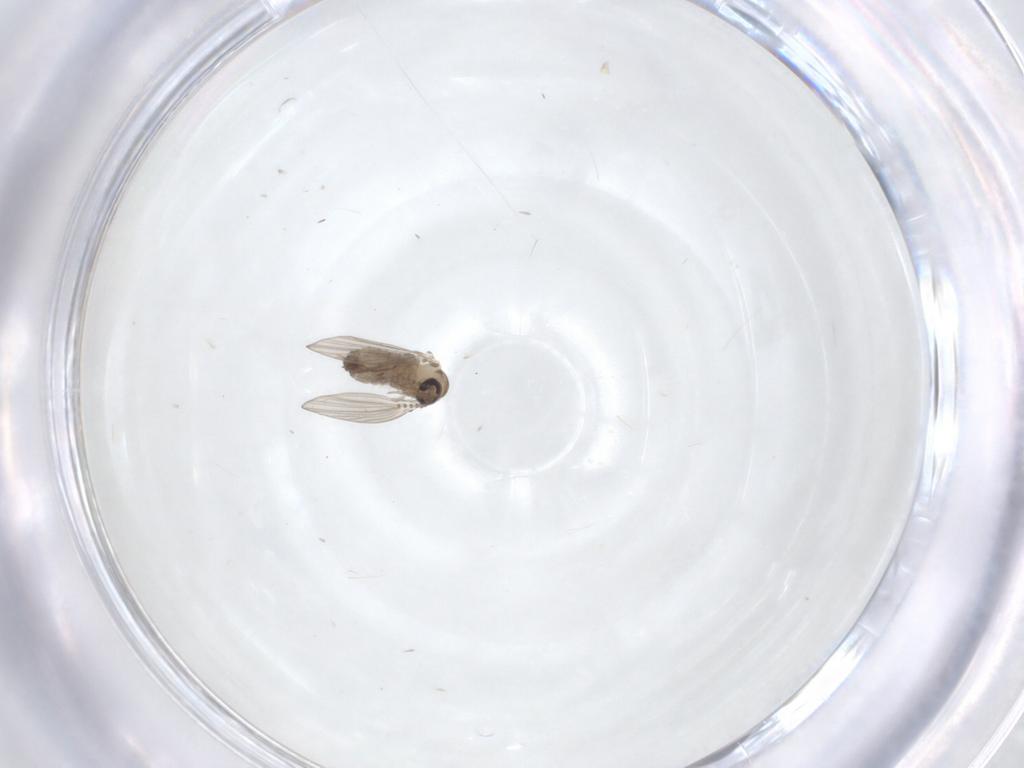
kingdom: Animalia
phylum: Arthropoda
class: Insecta
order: Diptera
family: Psychodidae
